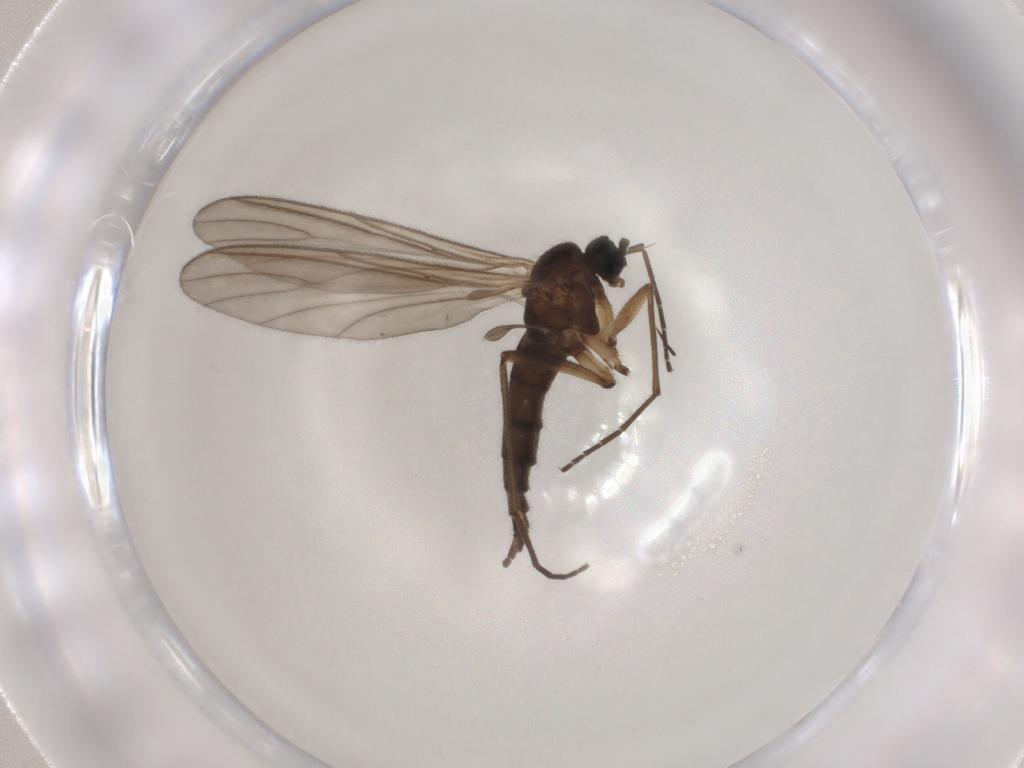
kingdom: Animalia
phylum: Arthropoda
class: Insecta
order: Diptera
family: Sciaridae
